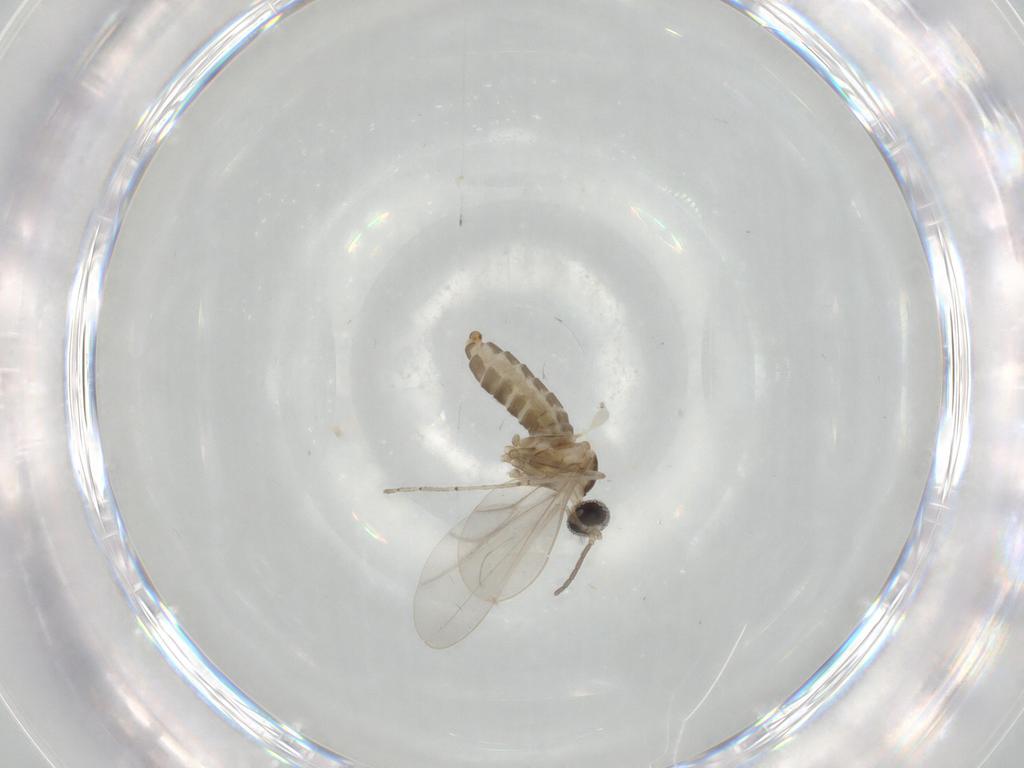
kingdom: Animalia
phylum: Arthropoda
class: Insecta
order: Diptera
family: Cecidomyiidae
